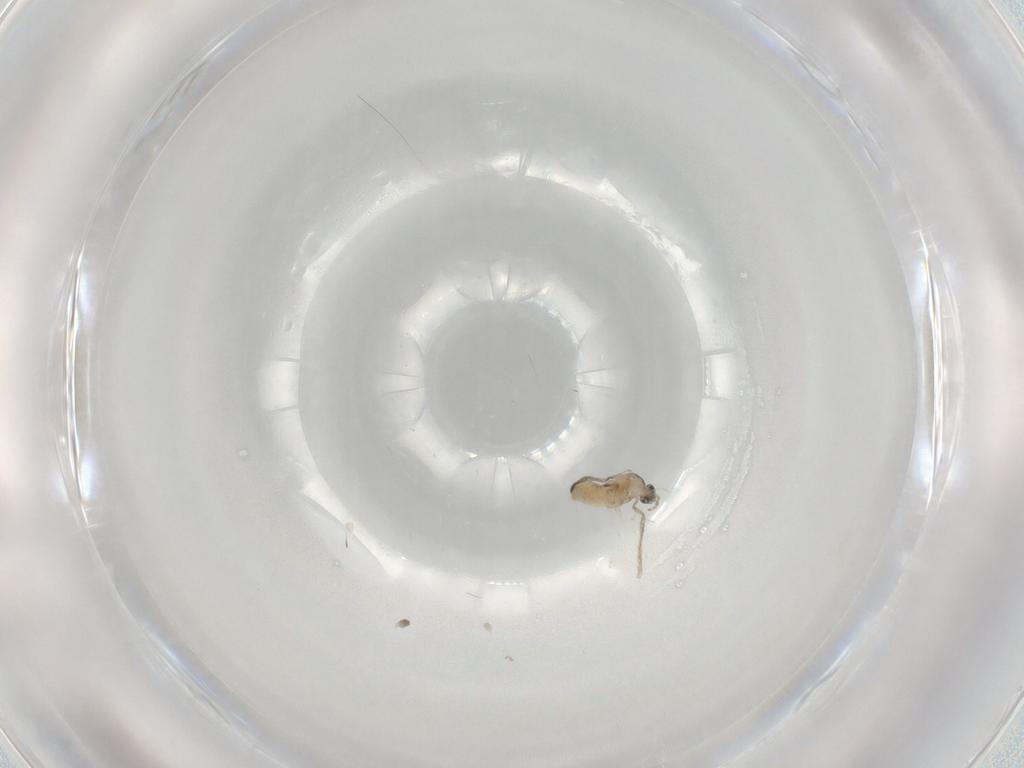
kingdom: Animalia
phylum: Arthropoda
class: Insecta
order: Diptera
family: Cecidomyiidae
